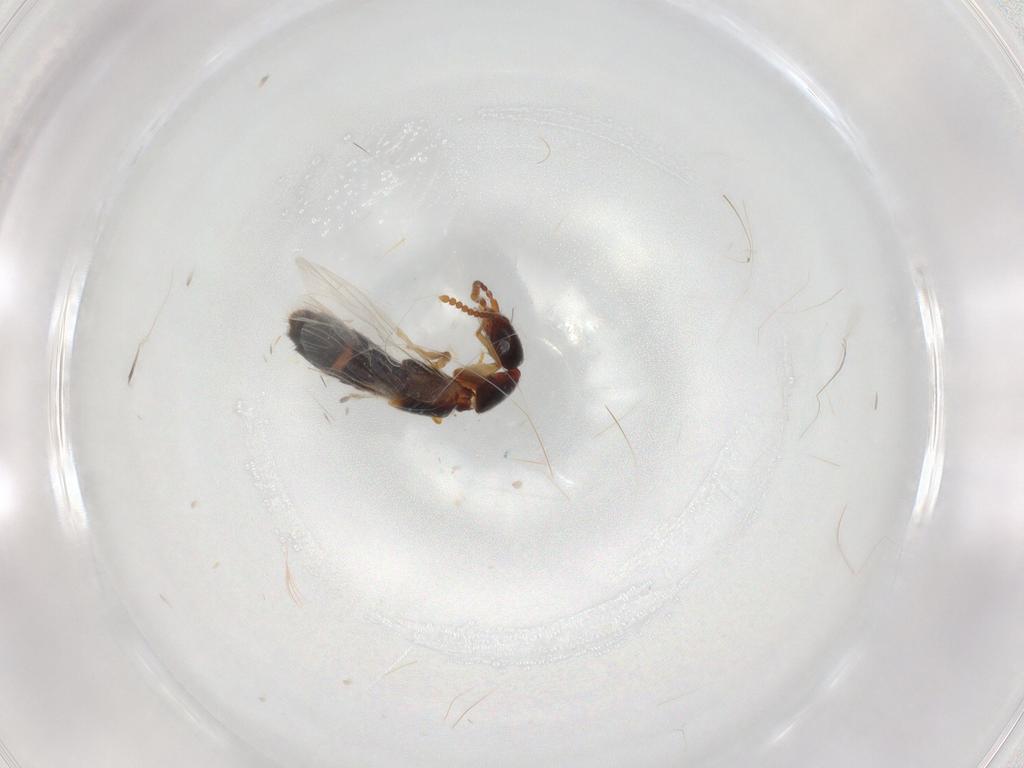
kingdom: Animalia
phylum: Arthropoda
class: Insecta
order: Coleoptera
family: Staphylinidae
